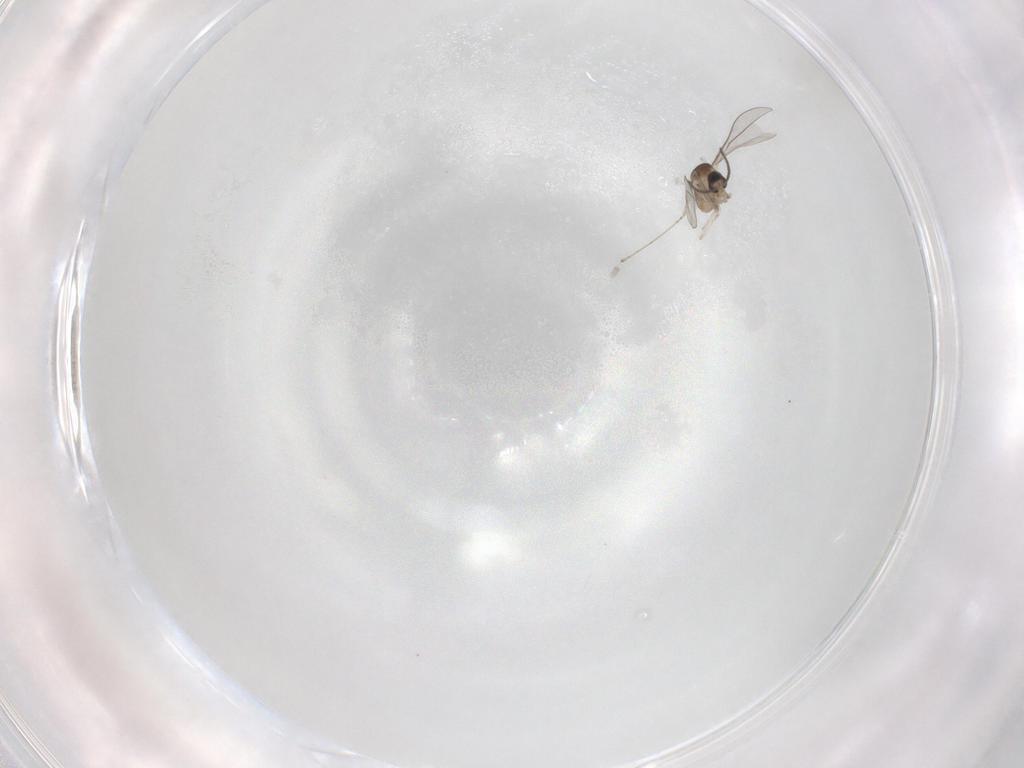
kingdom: Animalia
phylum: Arthropoda
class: Insecta
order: Diptera
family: Cecidomyiidae
